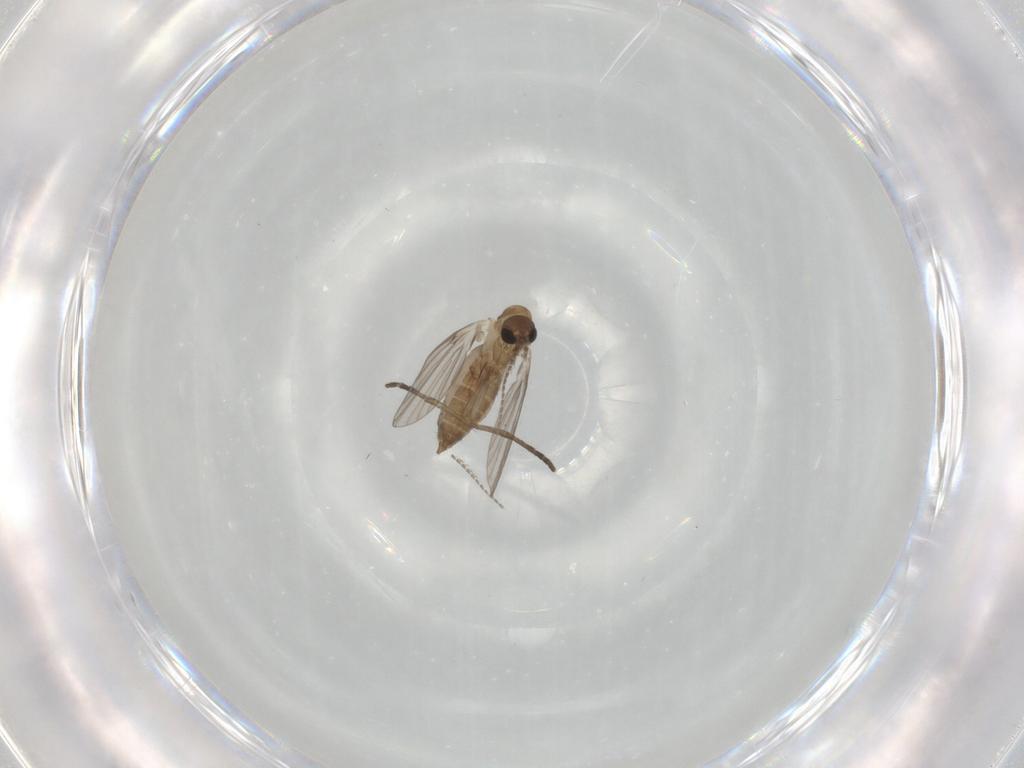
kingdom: Animalia
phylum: Arthropoda
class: Insecta
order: Diptera
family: Psychodidae
